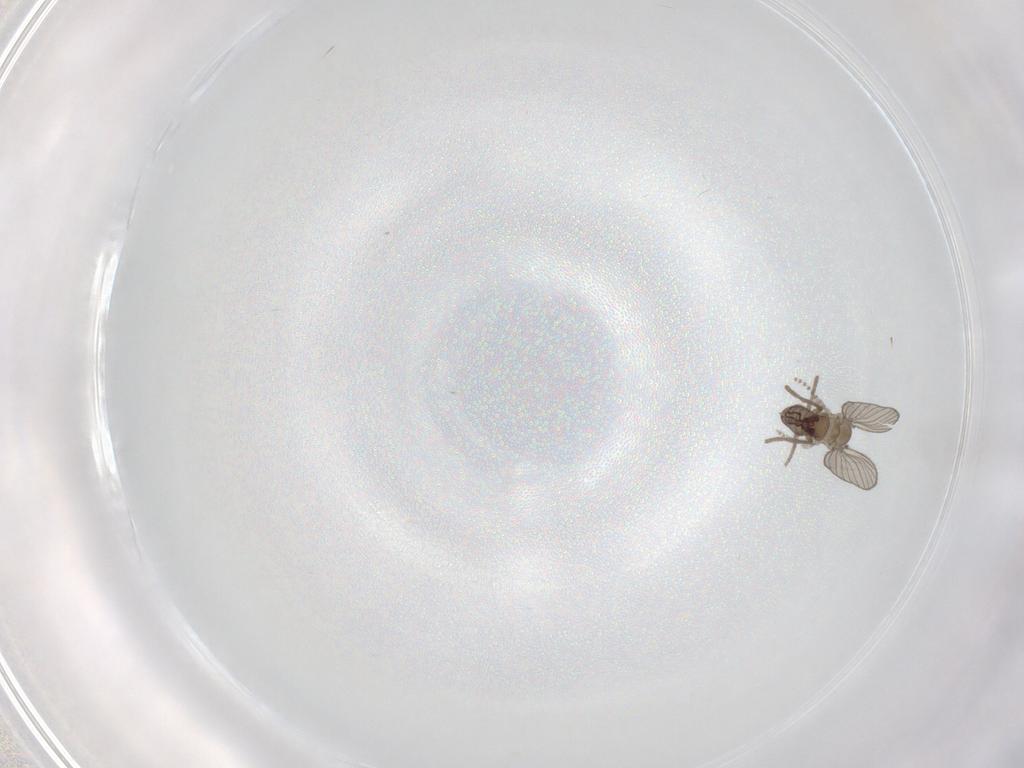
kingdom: Animalia
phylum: Arthropoda
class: Insecta
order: Diptera
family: Psychodidae
